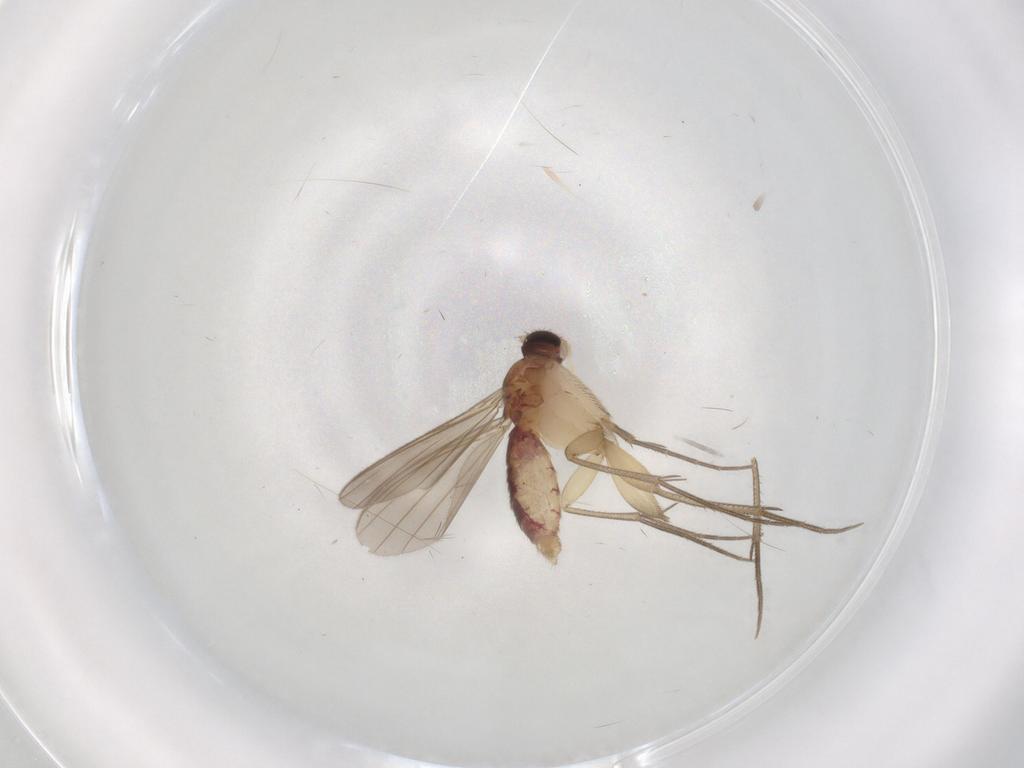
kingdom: Animalia
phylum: Arthropoda
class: Insecta
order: Diptera
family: Mycetophilidae
